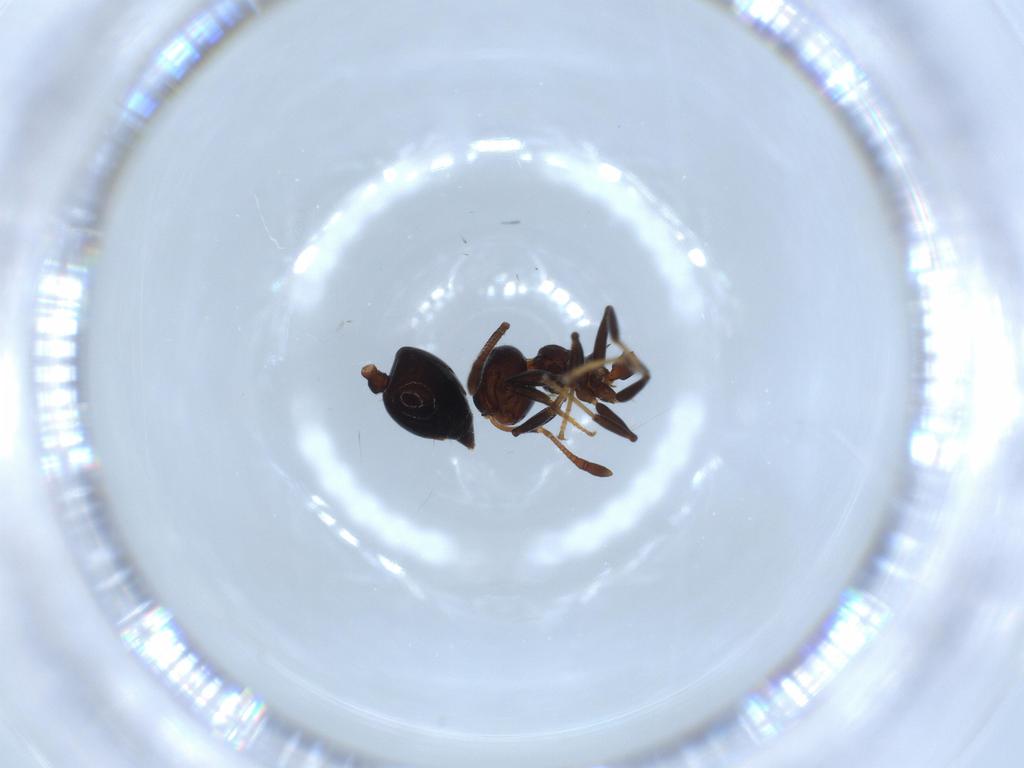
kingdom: Animalia
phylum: Arthropoda
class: Insecta
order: Hymenoptera
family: Formicidae
